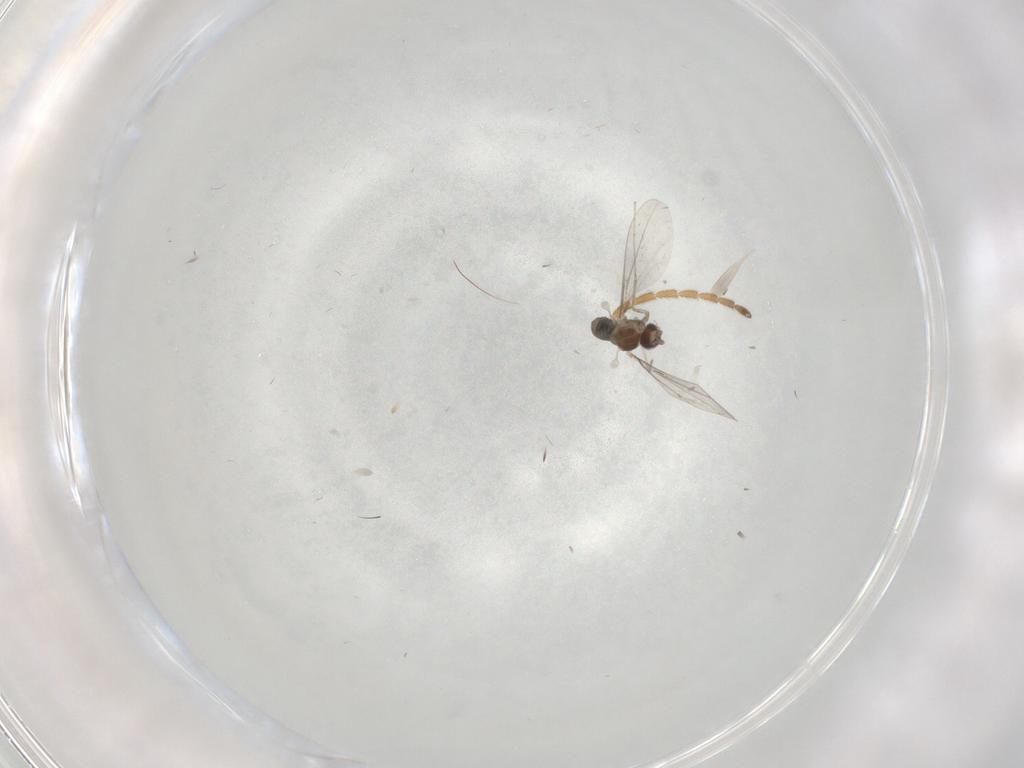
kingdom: Animalia
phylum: Arthropoda
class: Insecta
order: Diptera
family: Cecidomyiidae
